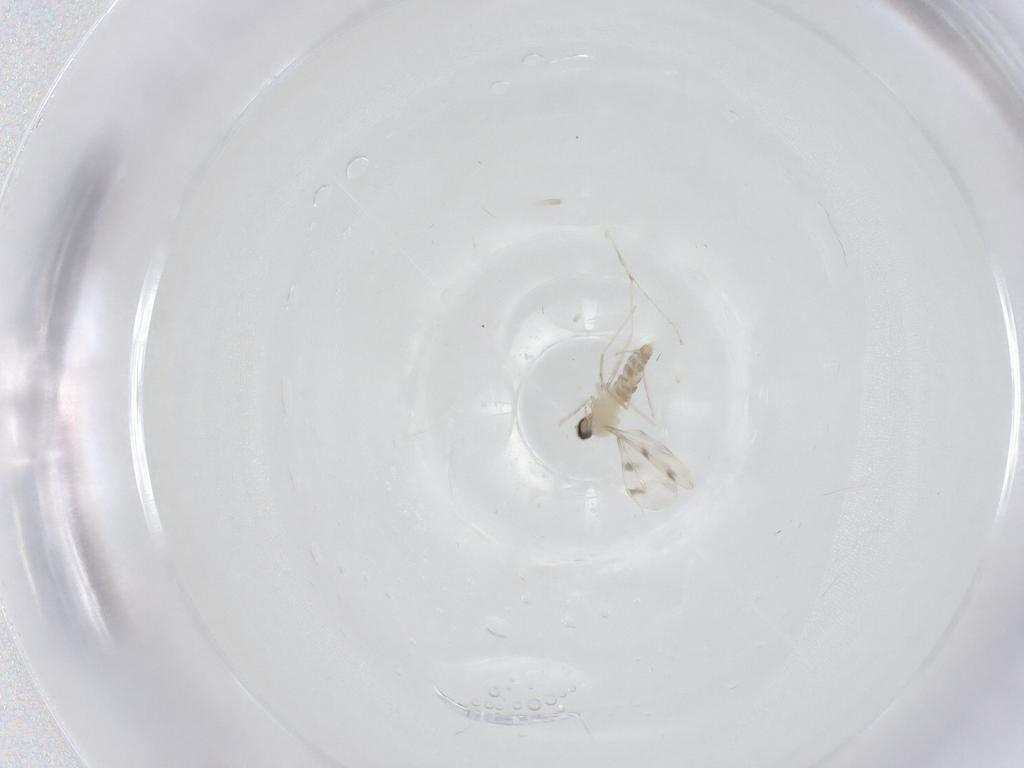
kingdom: Animalia
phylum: Arthropoda
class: Insecta
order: Diptera
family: Cecidomyiidae
